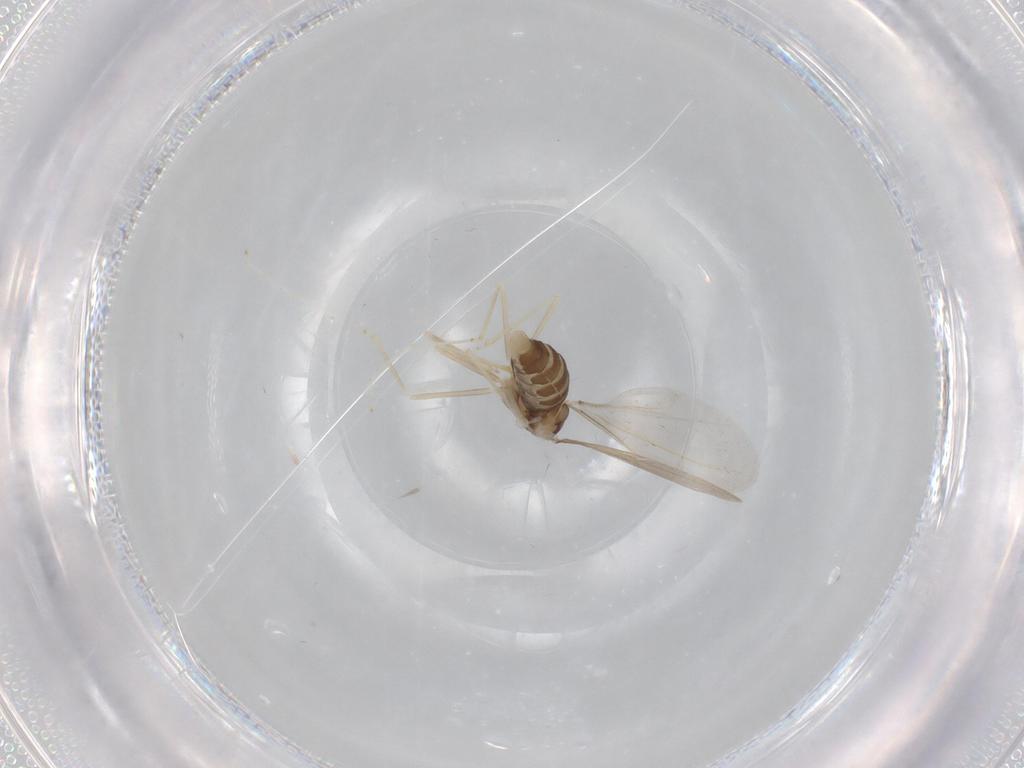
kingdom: Animalia
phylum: Arthropoda
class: Insecta
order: Diptera
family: Cecidomyiidae
